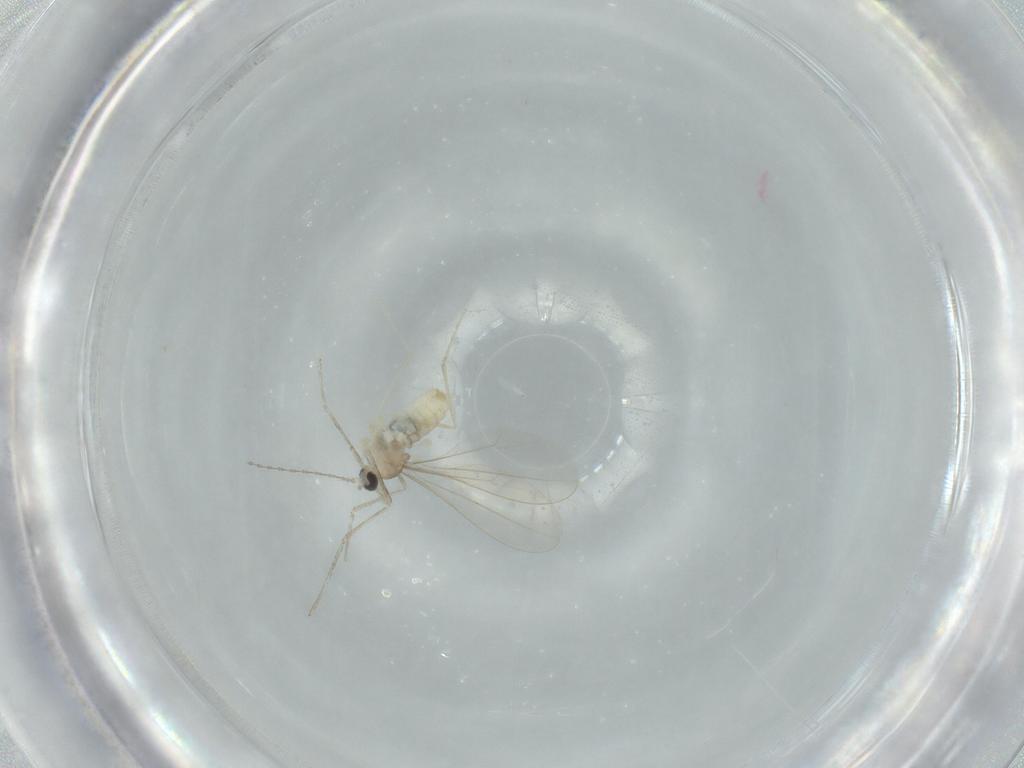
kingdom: Animalia
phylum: Arthropoda
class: Insecta
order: Diptera
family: Cecidomyiidae
